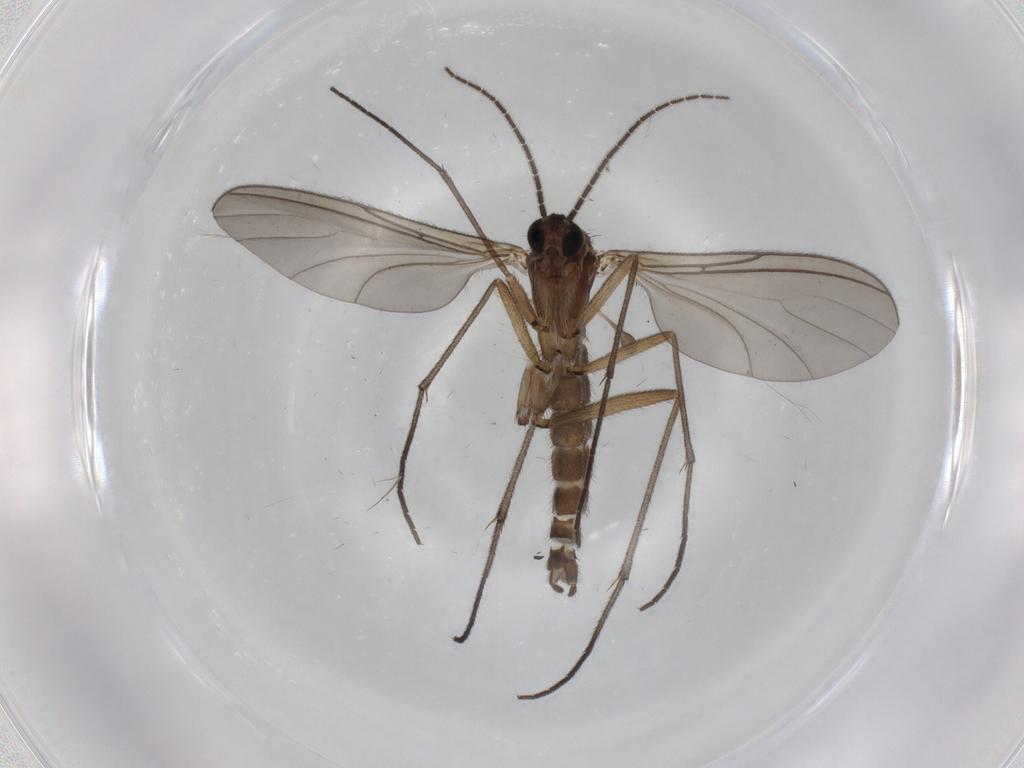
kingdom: Animalia
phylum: Arthropoda
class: Insecta
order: Diptera
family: Sciaridae
